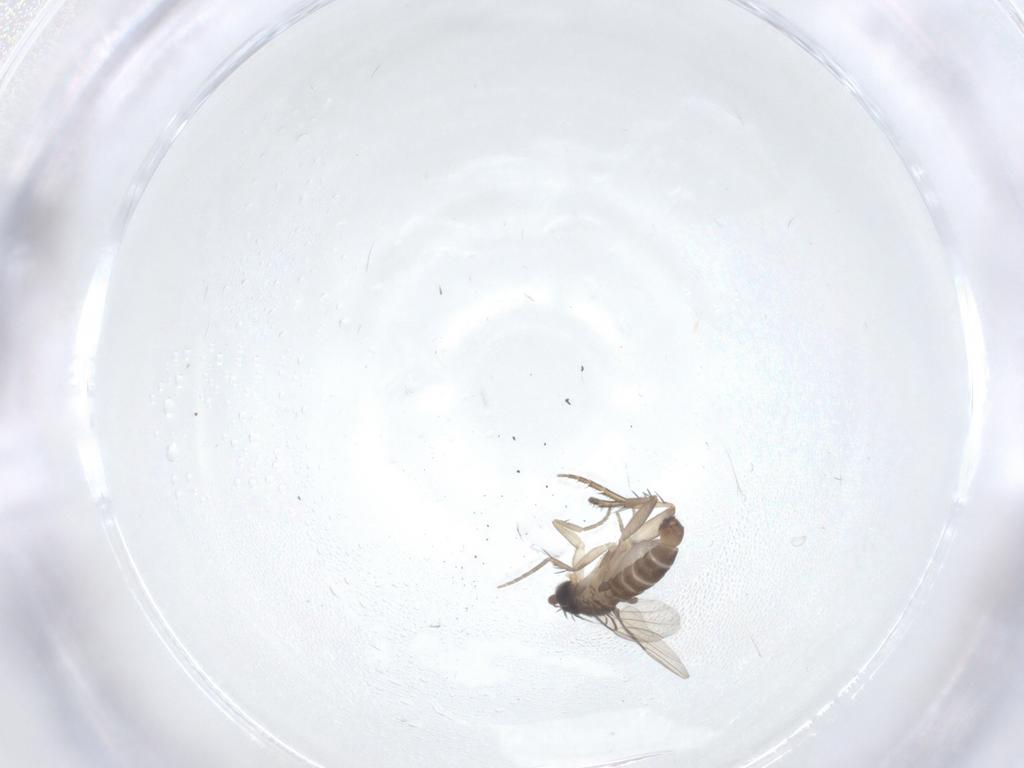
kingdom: Animalia
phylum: Arthropoda
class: Insecta
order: Diptera
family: Phoridae
